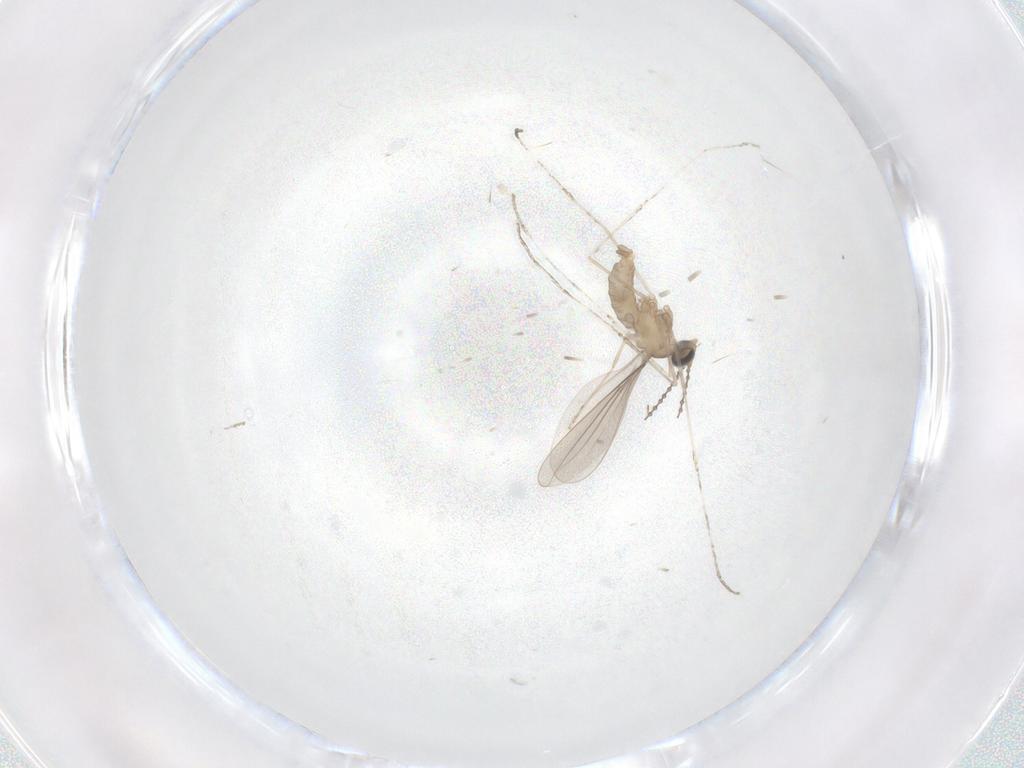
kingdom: Animalia
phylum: Arthropoda
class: Insecta
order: Diptera
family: Cecidomyiidae
